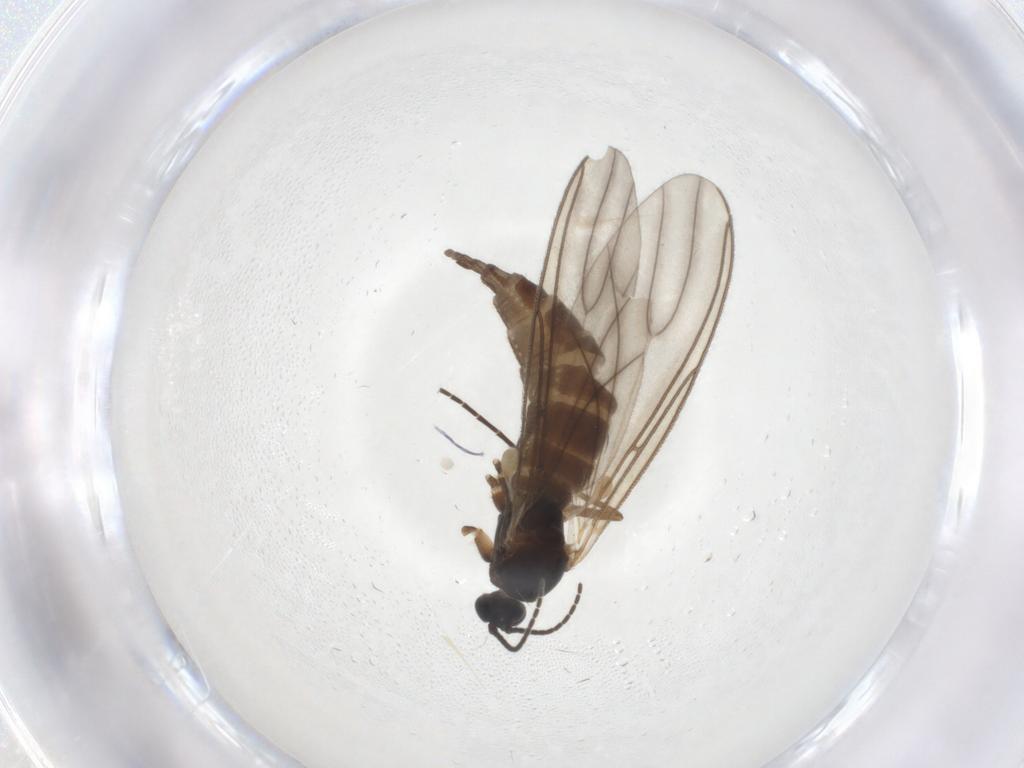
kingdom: Animalia
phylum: Arthropoda
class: Insecta
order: Diptera
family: Sciaridae
